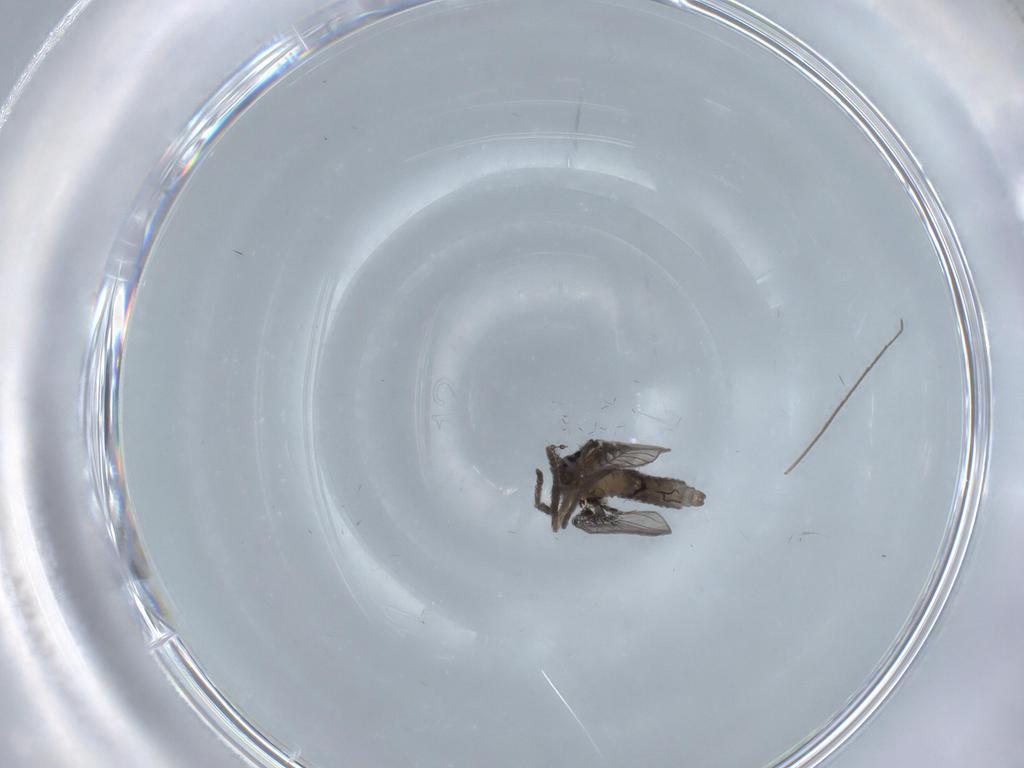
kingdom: Animalia
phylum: Arthropoda
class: Insecta
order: Diptera
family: Psychodidae
